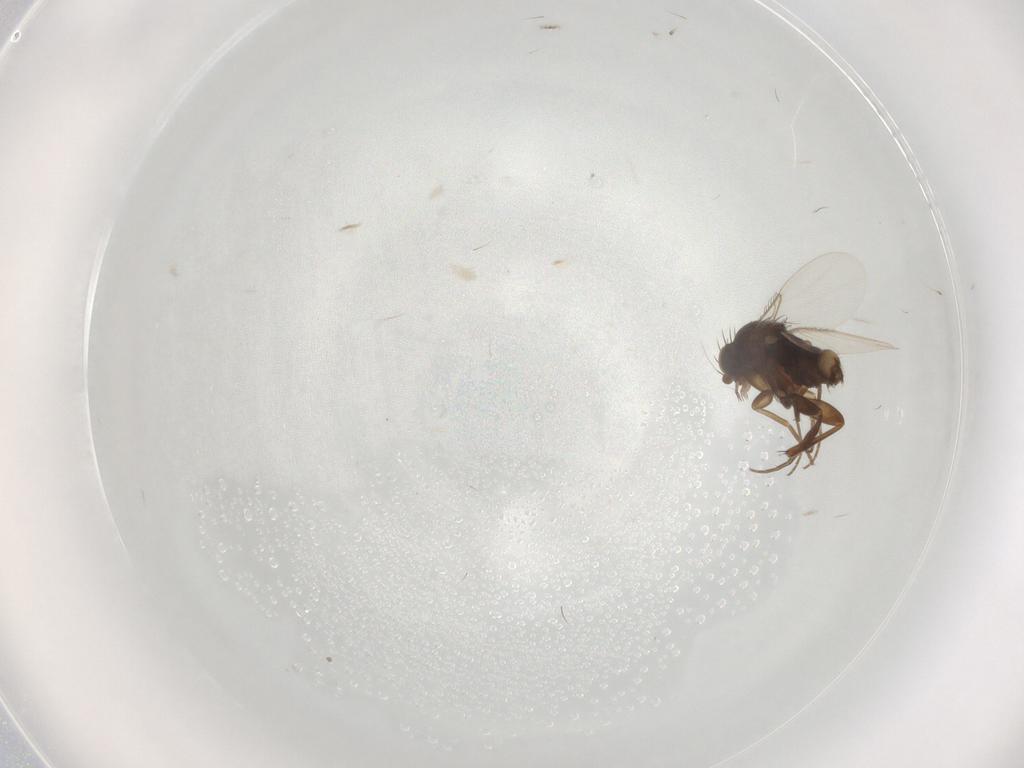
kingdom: Animalia
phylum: Arthropoda
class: Insecta
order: Diptera
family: Phoridae
